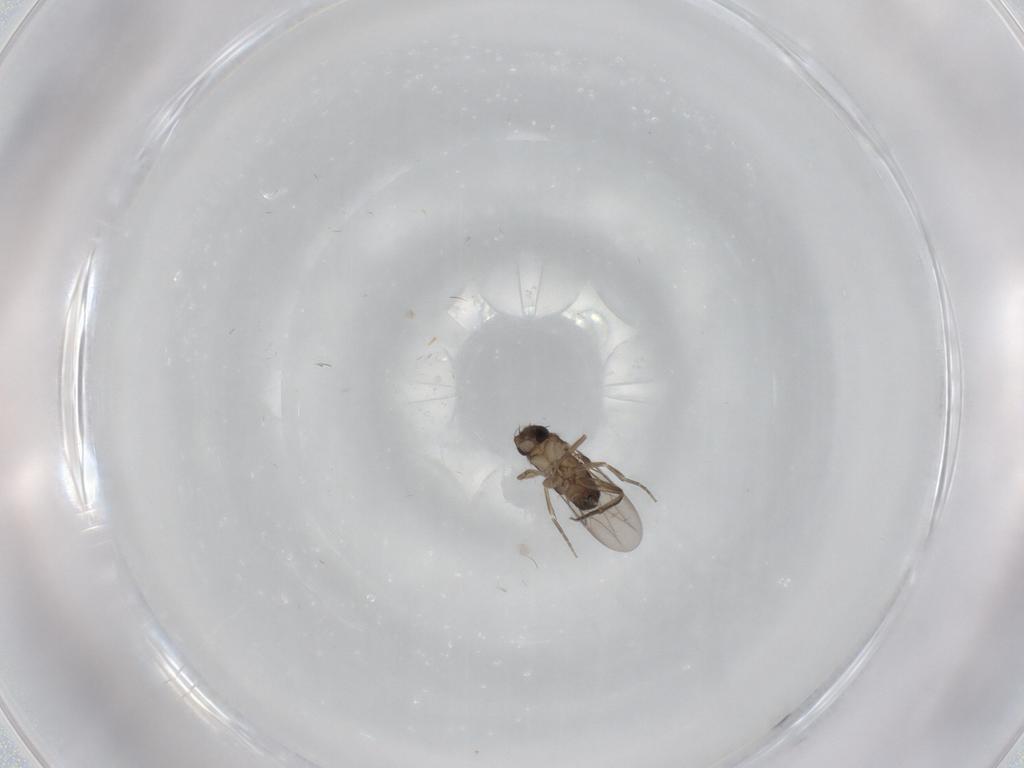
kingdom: Animalia
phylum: Arthropoda
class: Insecta
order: Diptera
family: Phoridae
